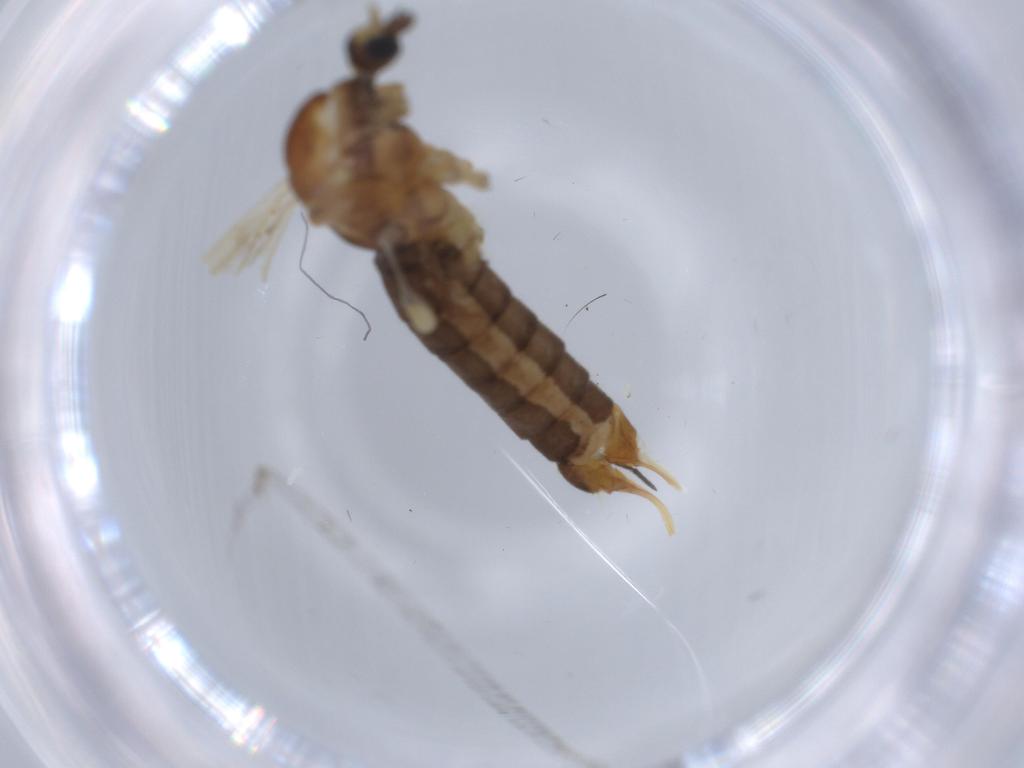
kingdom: Animalia
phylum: Arthropoda
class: Insecta
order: Diptera
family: Limoniidae
